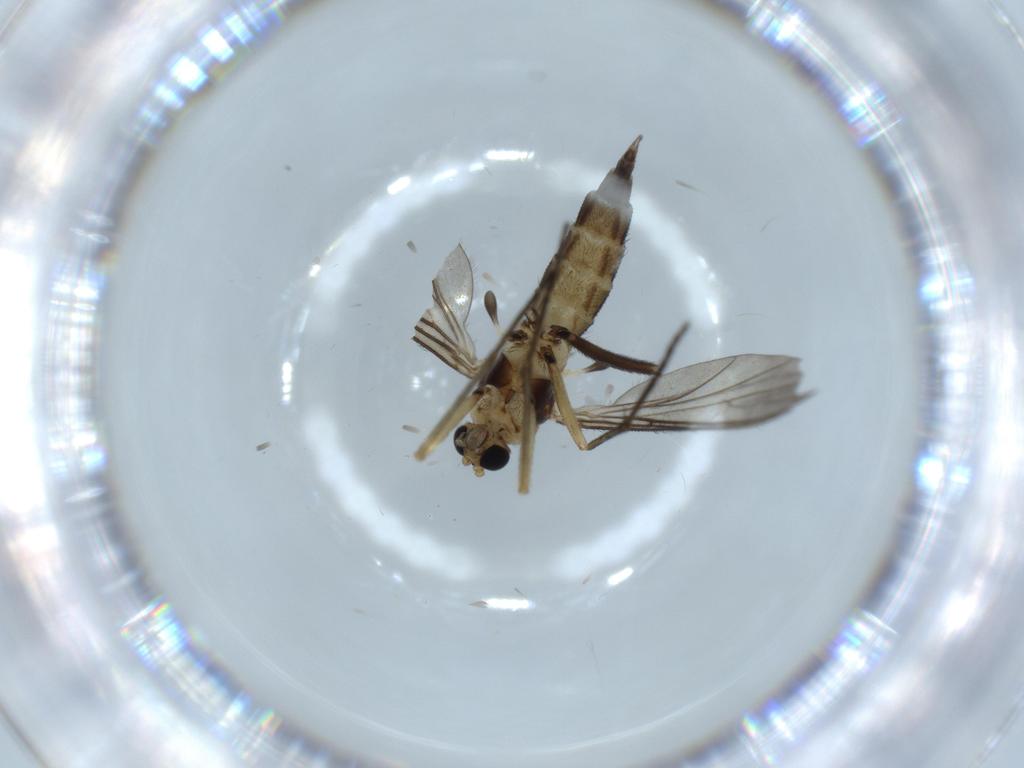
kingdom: Animalia
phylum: Arthropoda
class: Insecta
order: Diptera
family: Sciaridae
